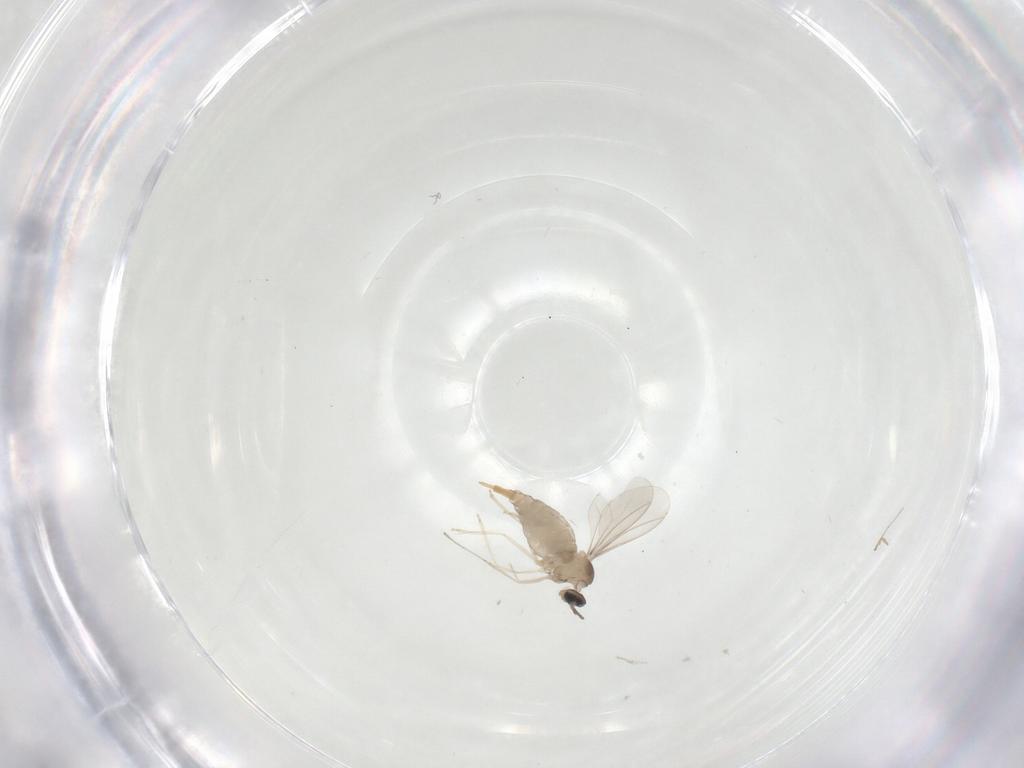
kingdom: Animalia
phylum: Arthropoda
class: Insecta
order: Diptera
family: Cecidomyiidae
